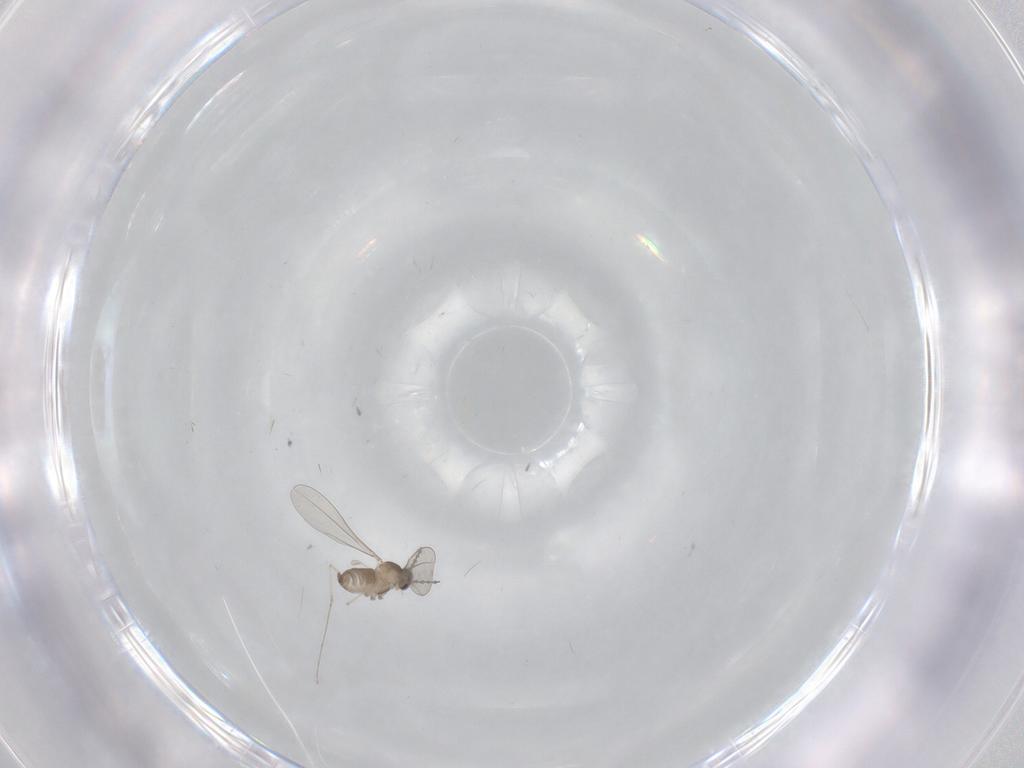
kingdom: Animalia
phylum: Arthropoda
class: Insecta
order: Diptera
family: Cecidomyiidae
